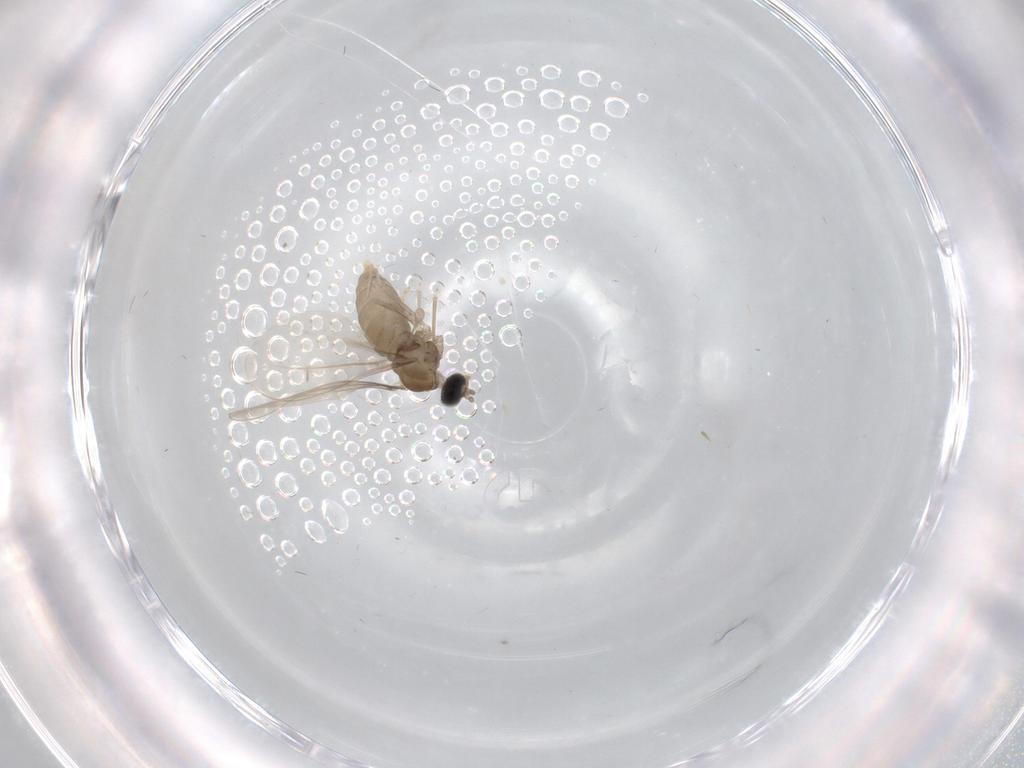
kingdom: Animalia
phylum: Arthropoda
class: Insecta
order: Diptera
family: Cecidomyiidae
